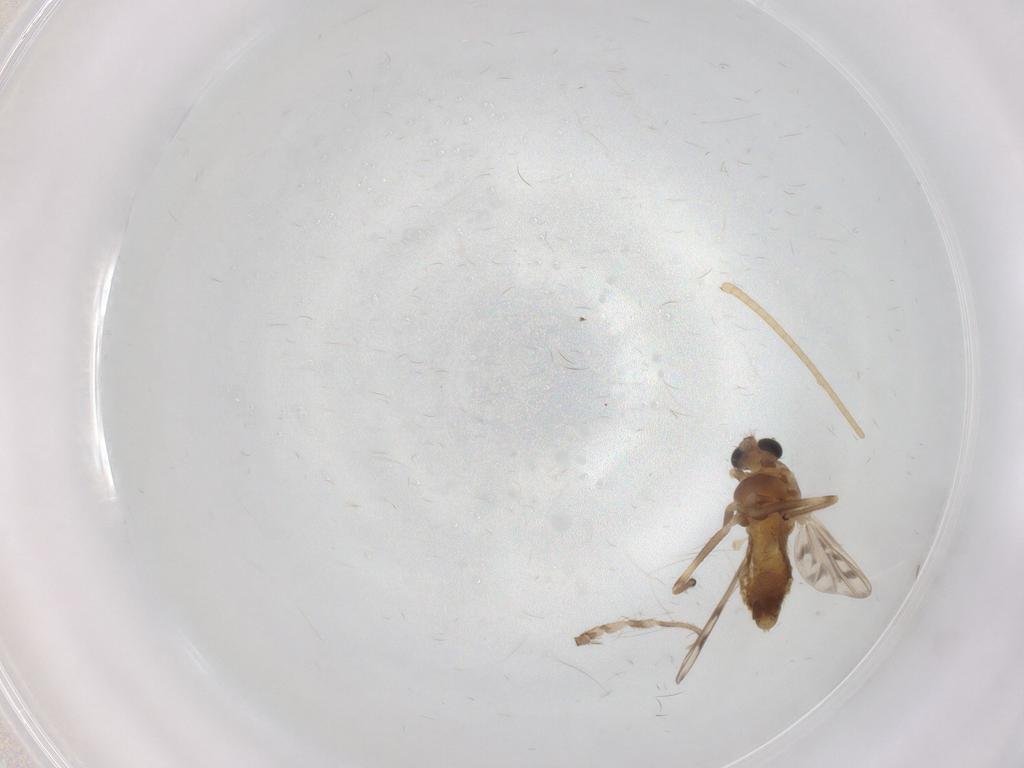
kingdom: Animalia
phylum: Arthropoda
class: Insecta
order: Diptera
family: Chironomidae
